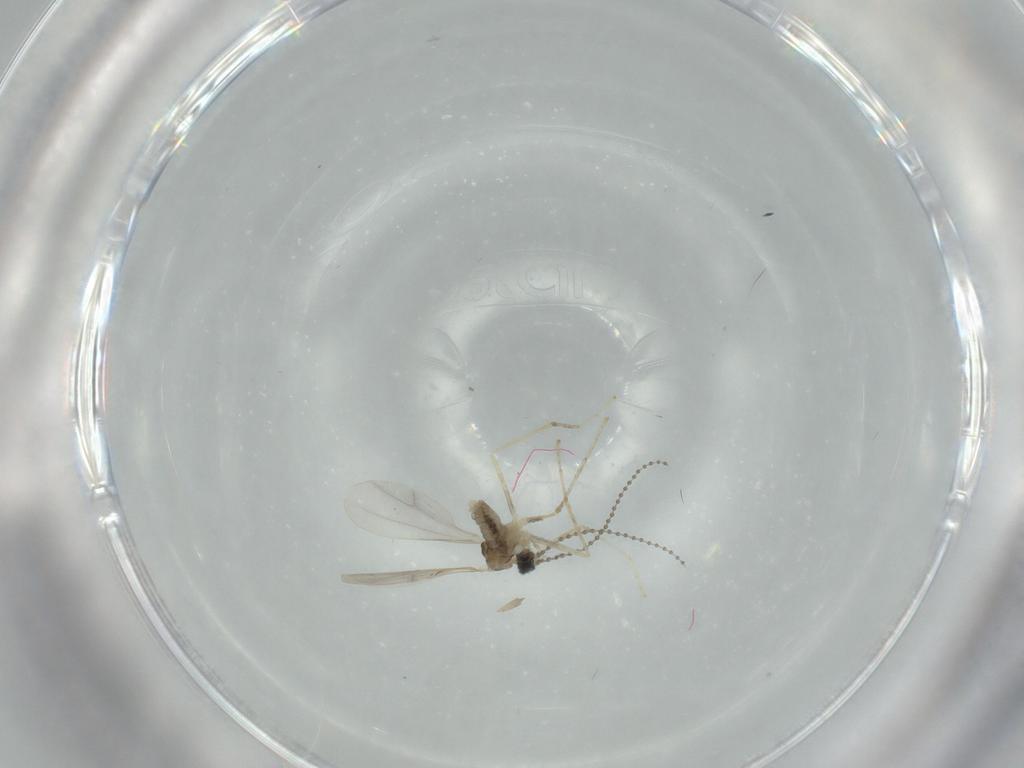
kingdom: Animalia
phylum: Arthropoda
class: Insecta
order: Diptera
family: Cecidomyiidae
